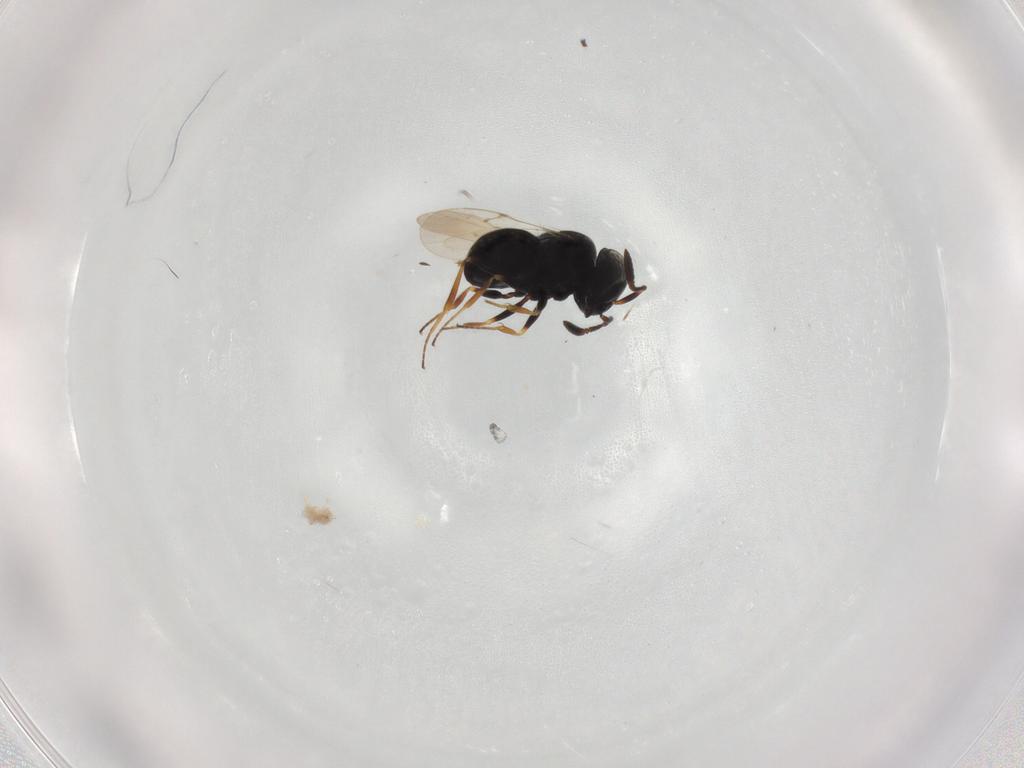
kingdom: Animalia
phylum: Arthropoda
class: Insecta
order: Hymenoptera
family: Scelionidae
